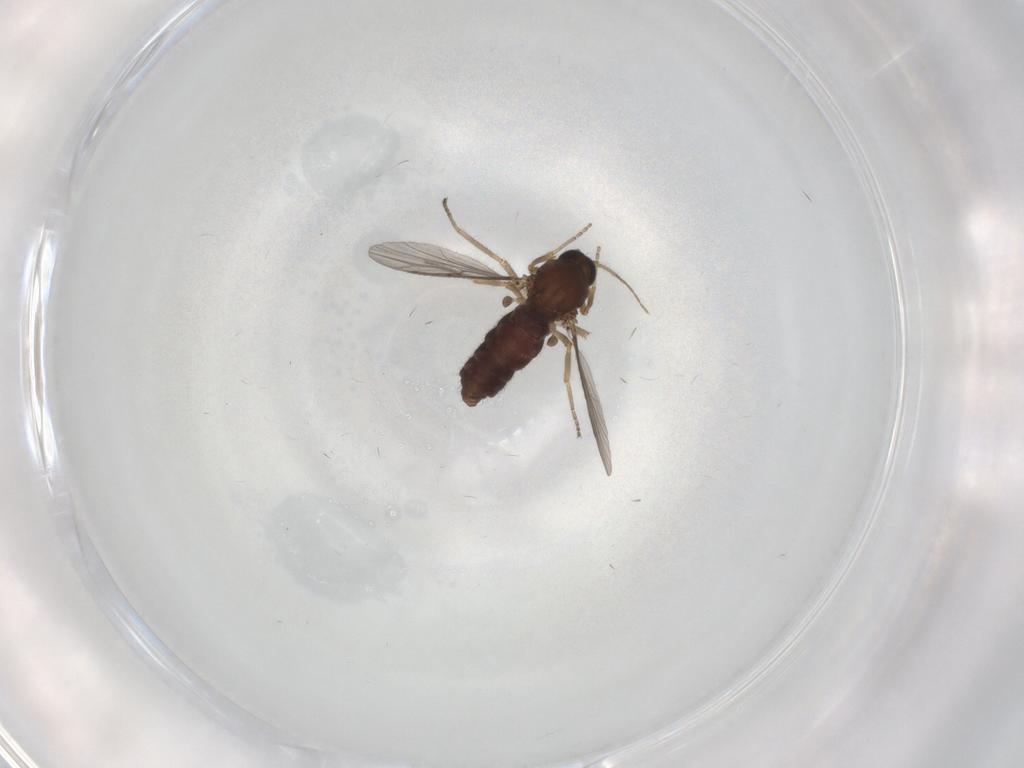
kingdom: Animalia
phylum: Arthropoda
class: Insecta
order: Diptera
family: Ceratopogonidae
